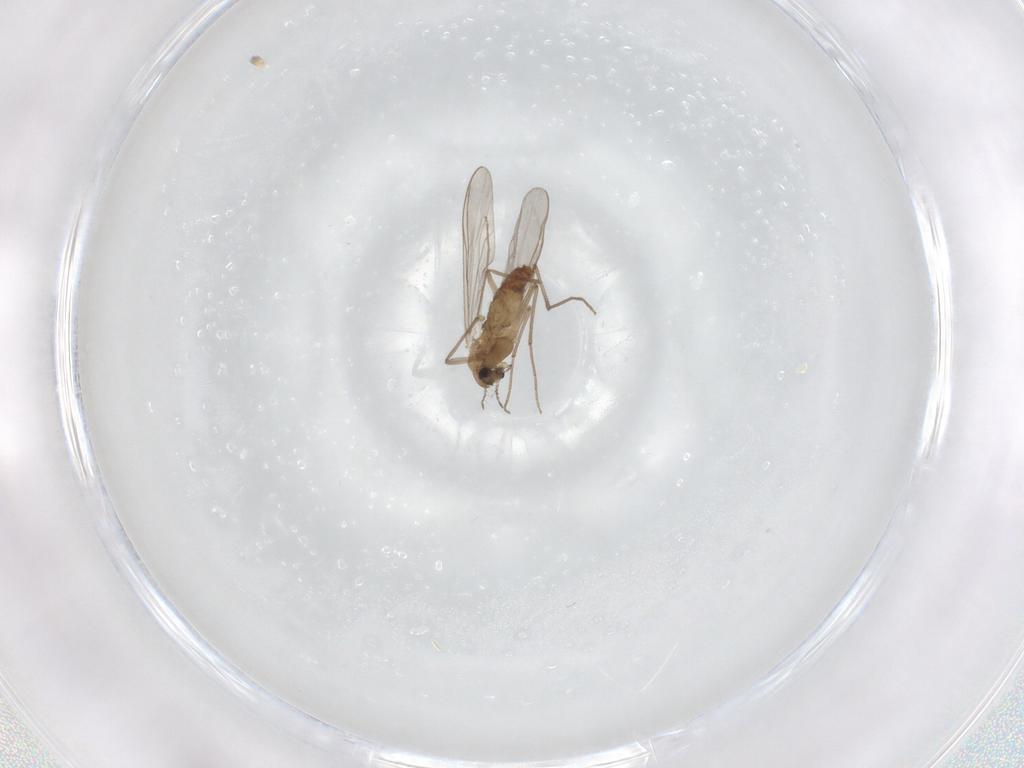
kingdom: Animalia
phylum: Arthropoda
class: Insecta
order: Diptera
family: Chironomidae
